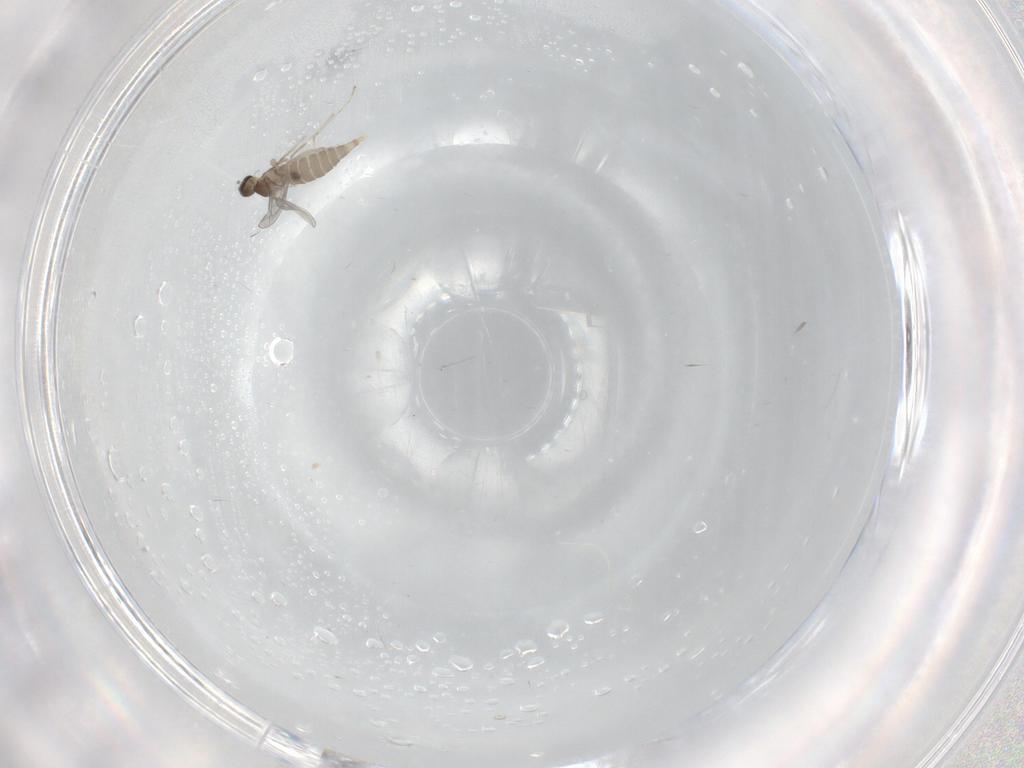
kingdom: Animalia
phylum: Arthropoda
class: Insecta
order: Diptera
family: Cecidomyiidae
